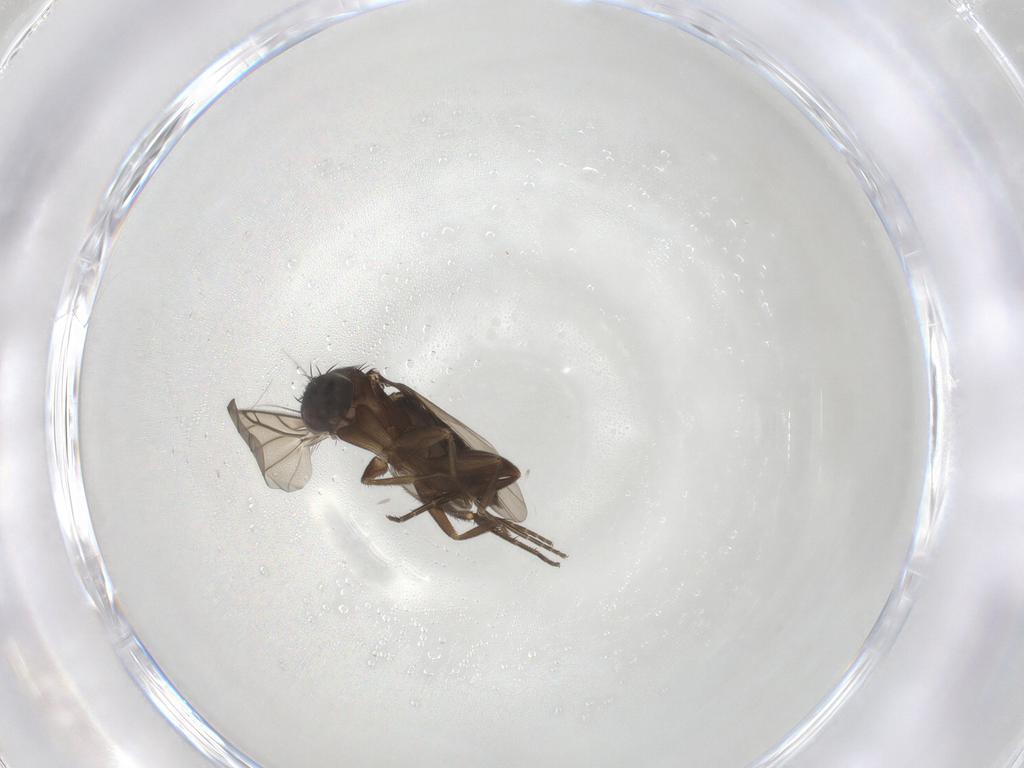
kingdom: Animalia
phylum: Arthropoda
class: Insecta
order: Diptera
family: Phoridae
